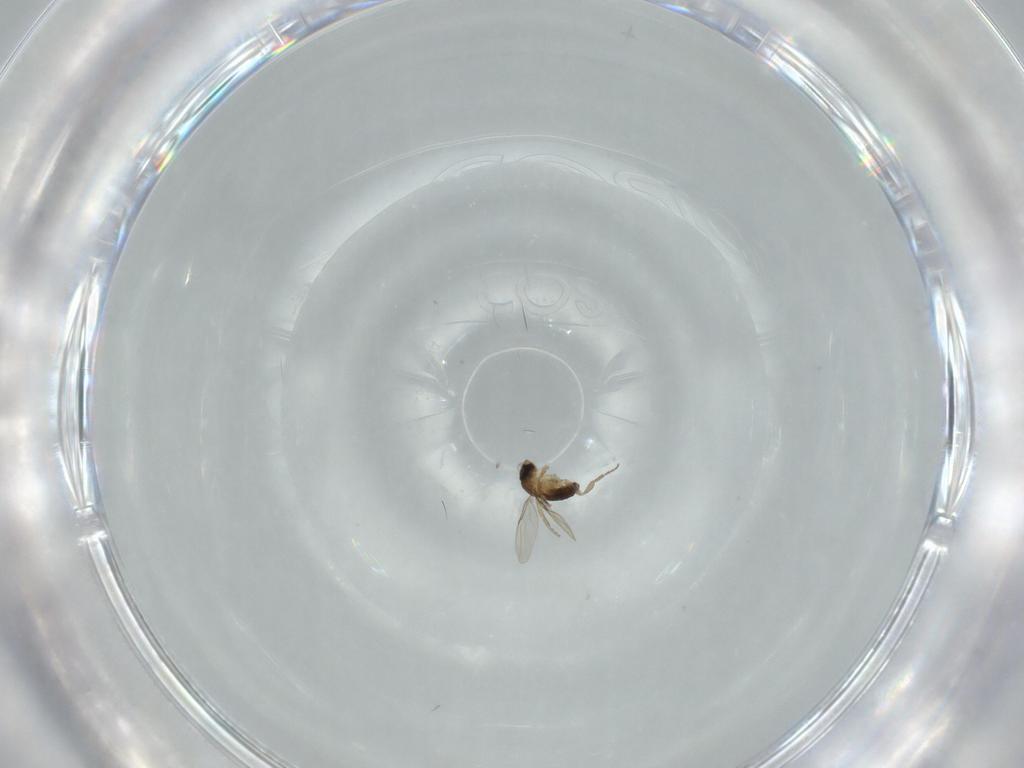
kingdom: Animalia
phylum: Arthropoda
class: Insecta
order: Diptera
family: Phoridae
